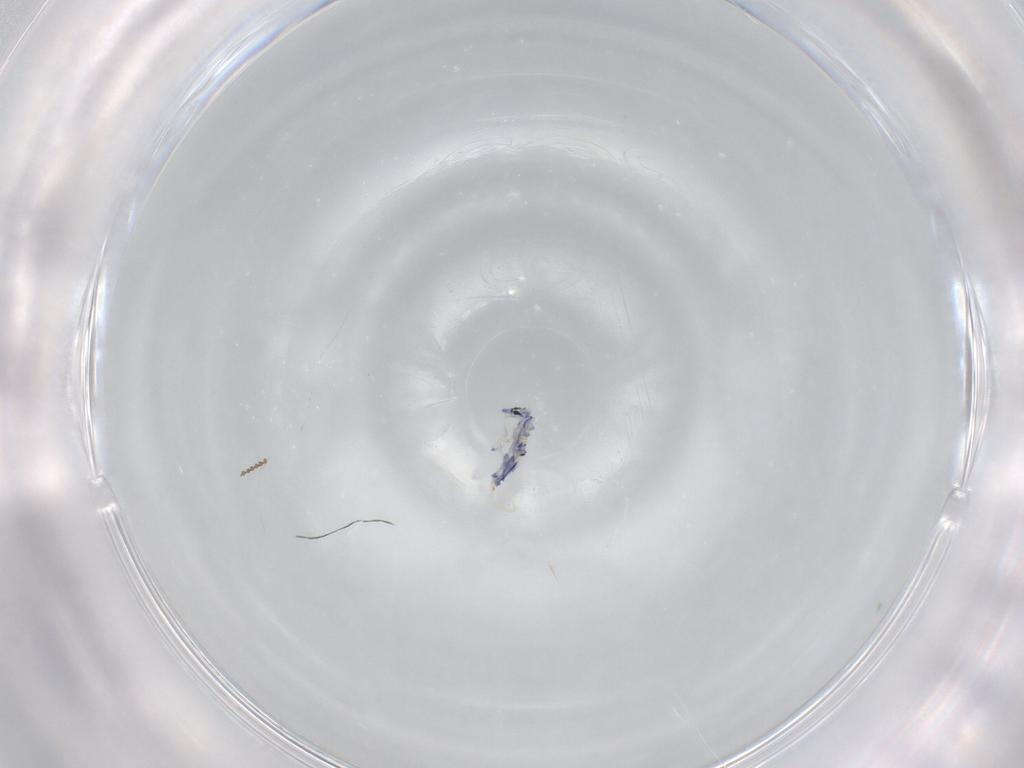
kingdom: Animalia
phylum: Arthropoda
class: Collembola
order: Entomobryomorpha
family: Entomobryidae
